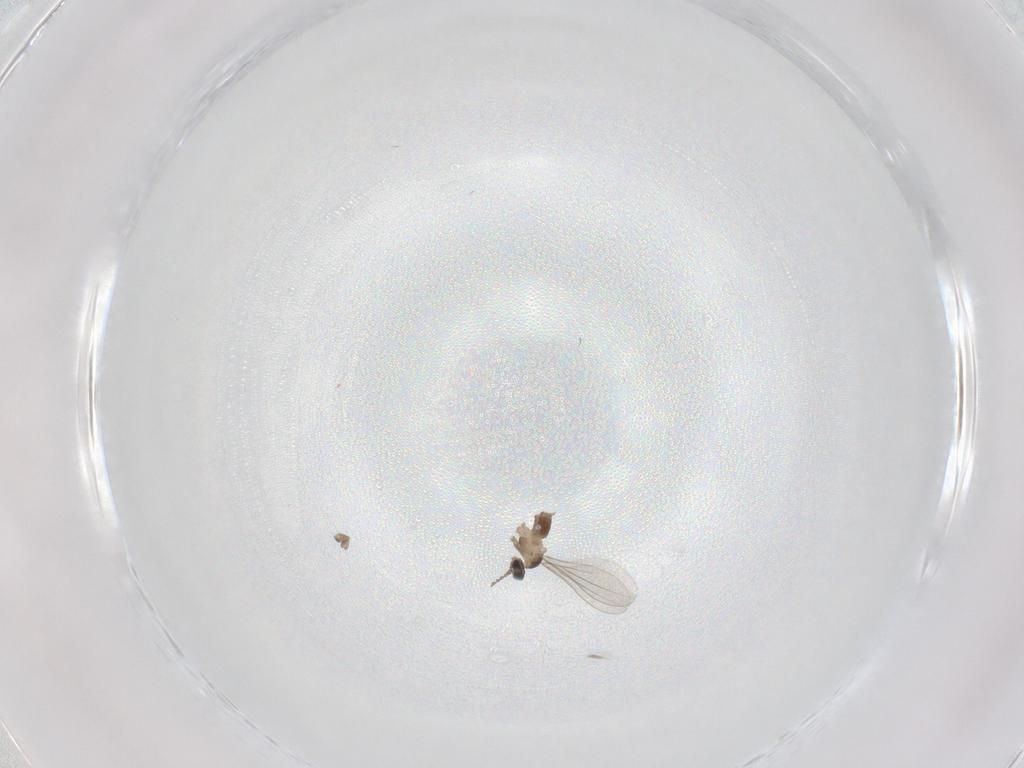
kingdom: Animalia
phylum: Arthropoda
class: Insecta
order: Diptera
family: Cecidomyiidae
